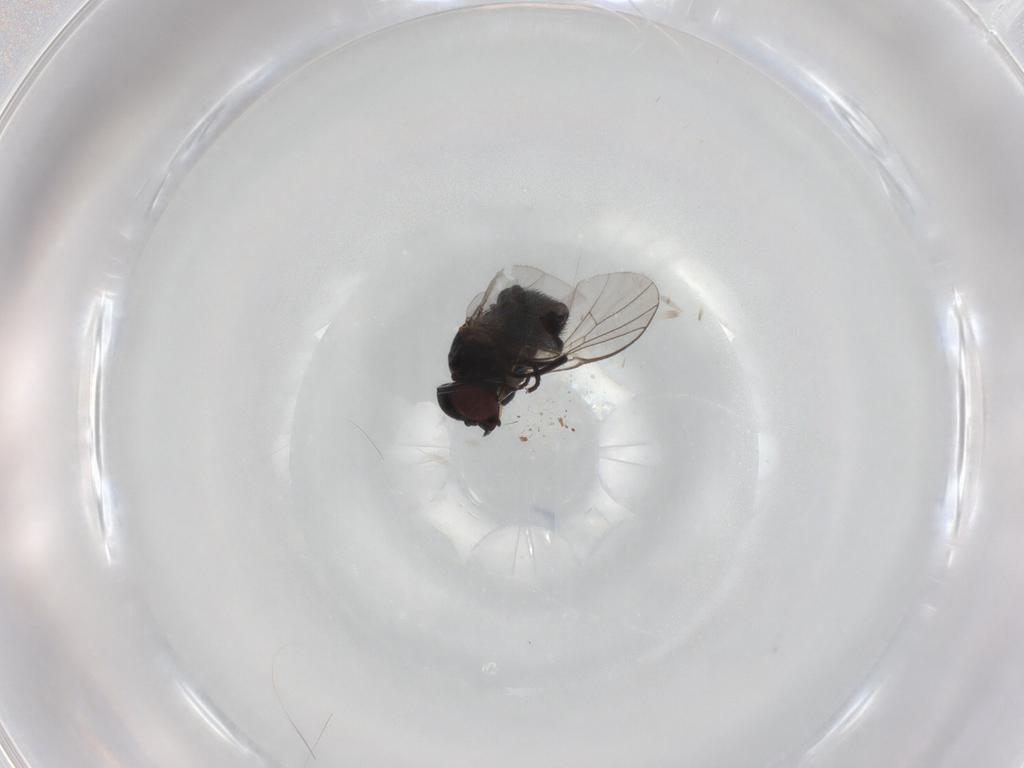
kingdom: Animalia
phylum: Arthropoda
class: Insecta
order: Diptera
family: Agromyzidae
